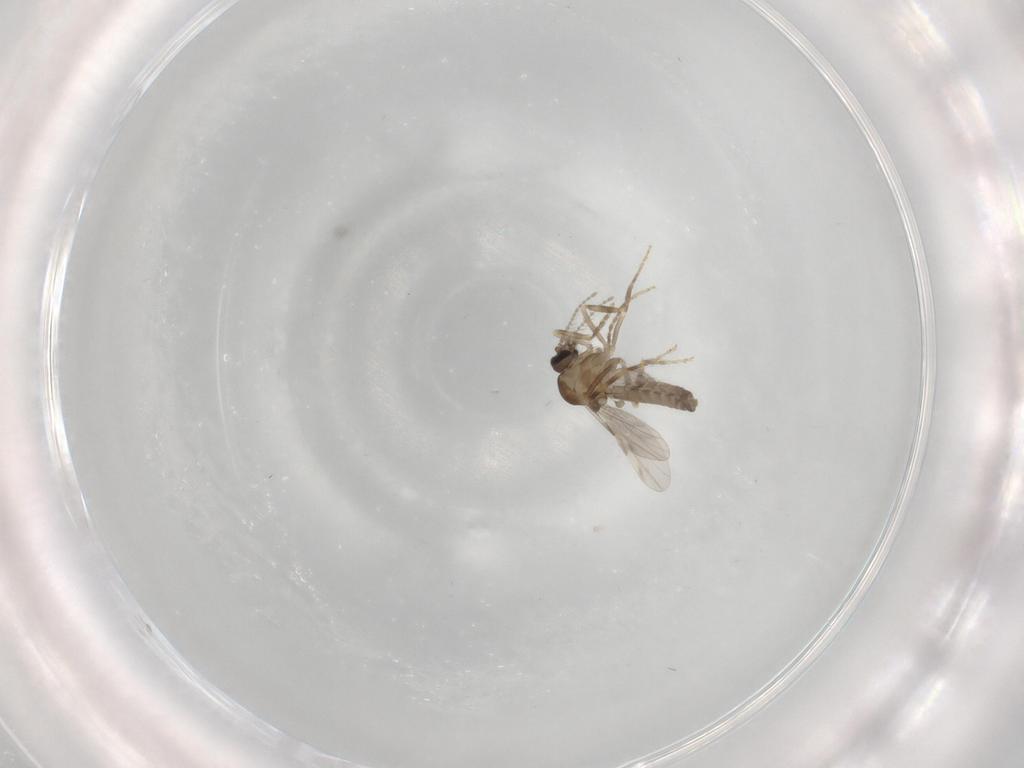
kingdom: Animalia
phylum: Arthropoda
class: Insecta
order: Diptera
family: Ceratopogonidae
